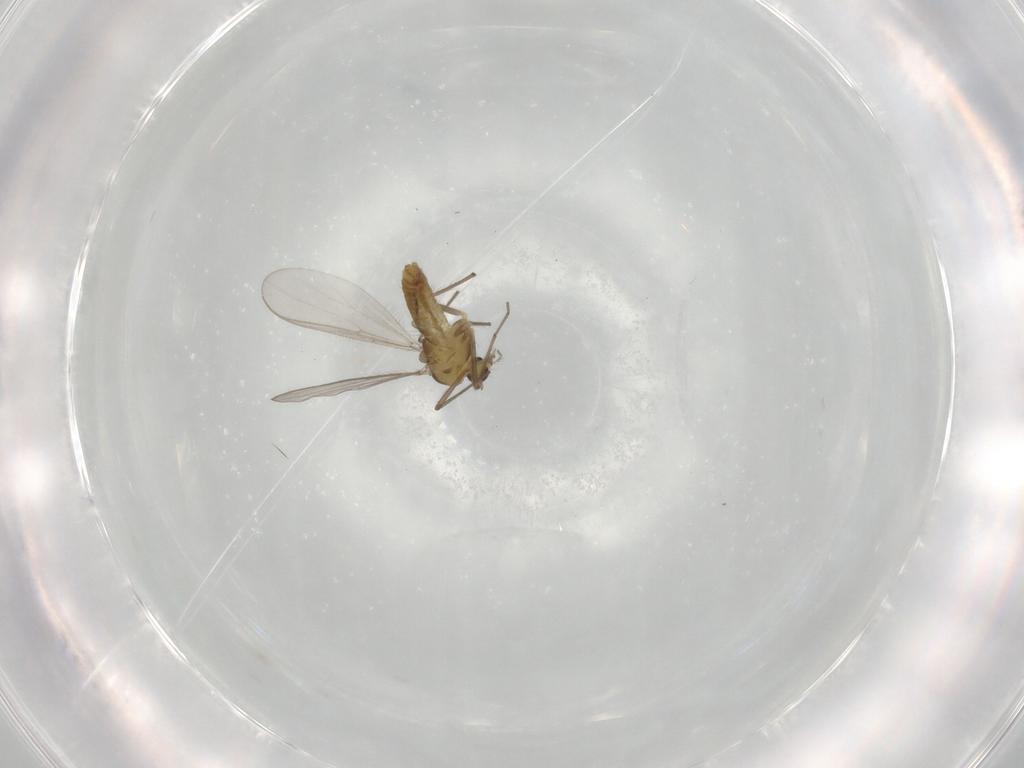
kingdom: Animalia
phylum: Arthropoda
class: Insecta
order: Diptera
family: Chironomidae
